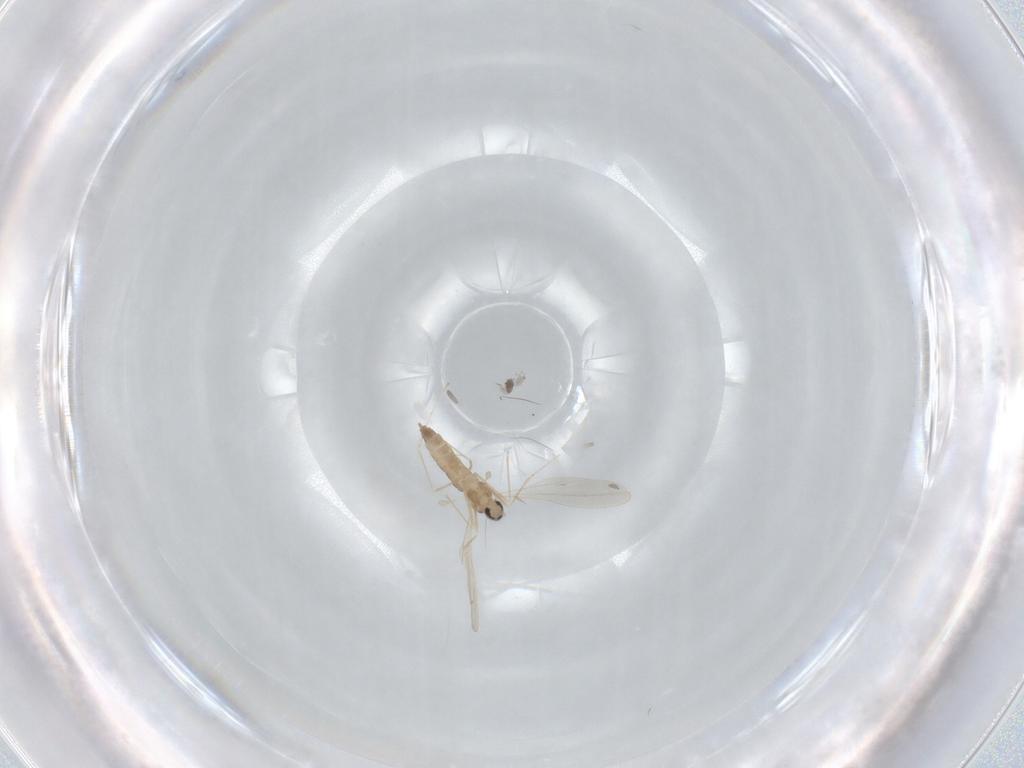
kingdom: Animalia
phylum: Arthropoda
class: Insecta
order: Diptera
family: Cecidomyiidae
